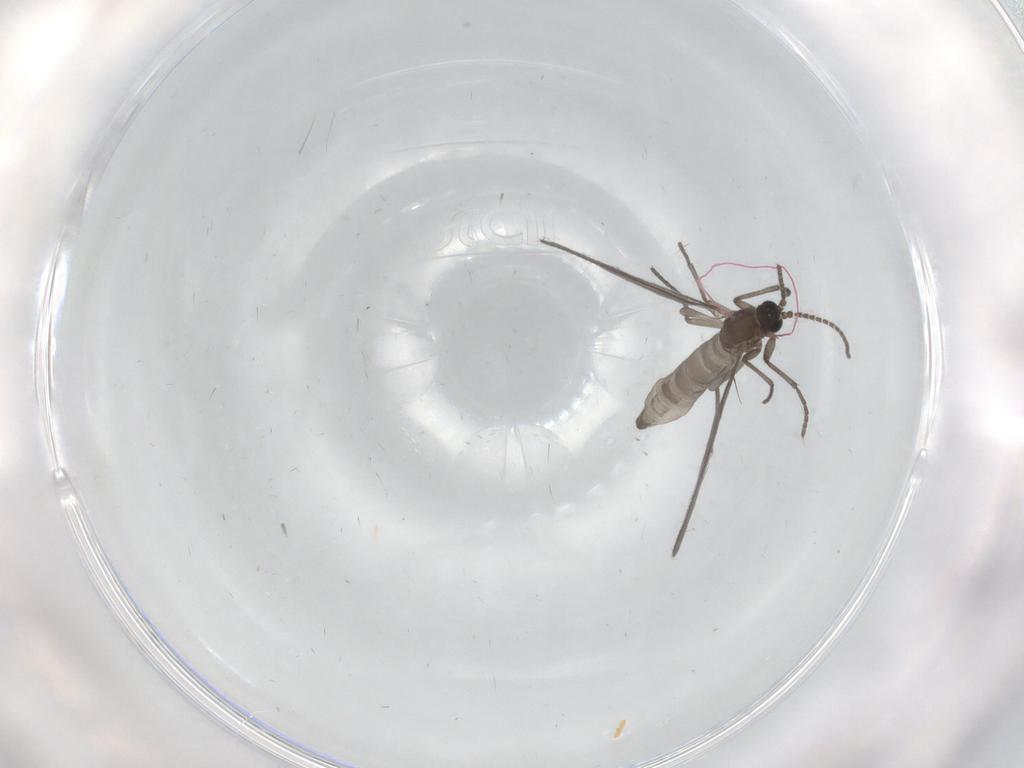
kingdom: Animalia
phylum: Arthropoda
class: Insecta
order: Diptera
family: Sciaridae
